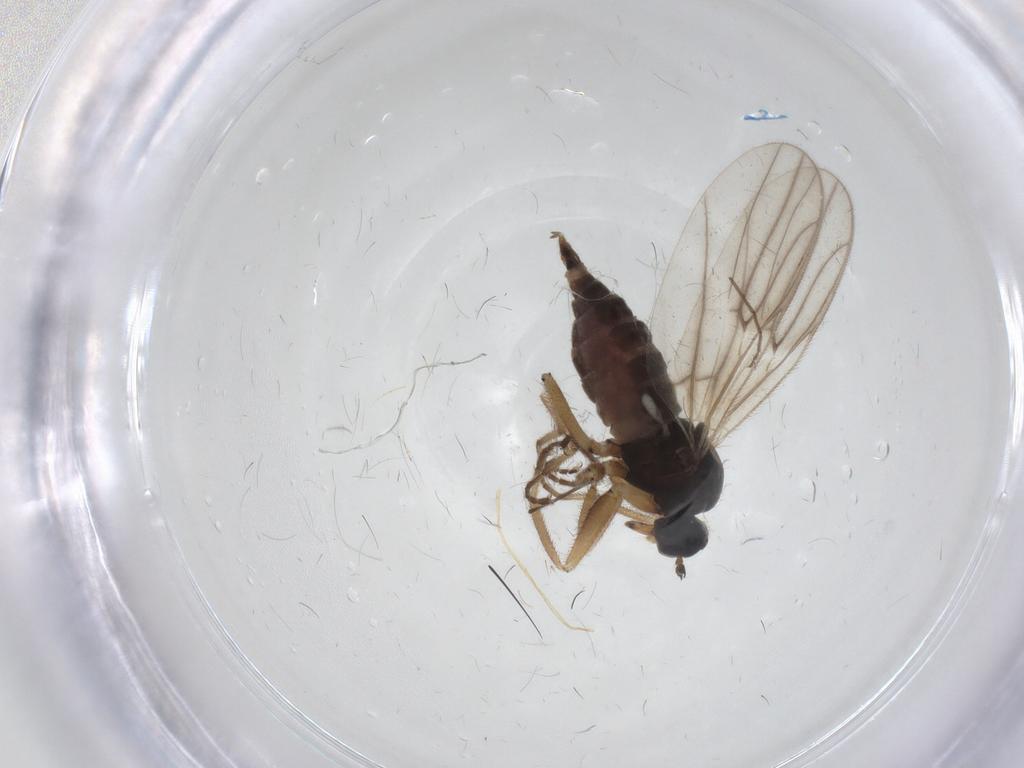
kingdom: Animalia
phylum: Arthropoda
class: Insecta
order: Diptera
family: Hybotidae
